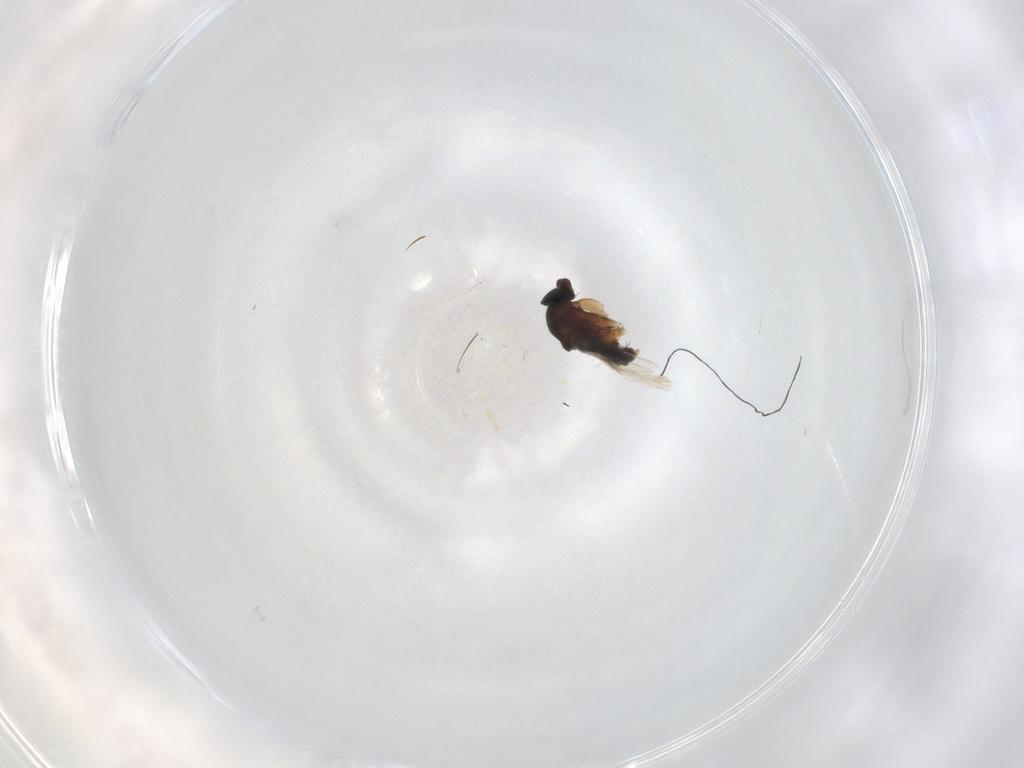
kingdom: Animalia
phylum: Arthropoda
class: Insecta
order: Diptera
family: Phoridae
